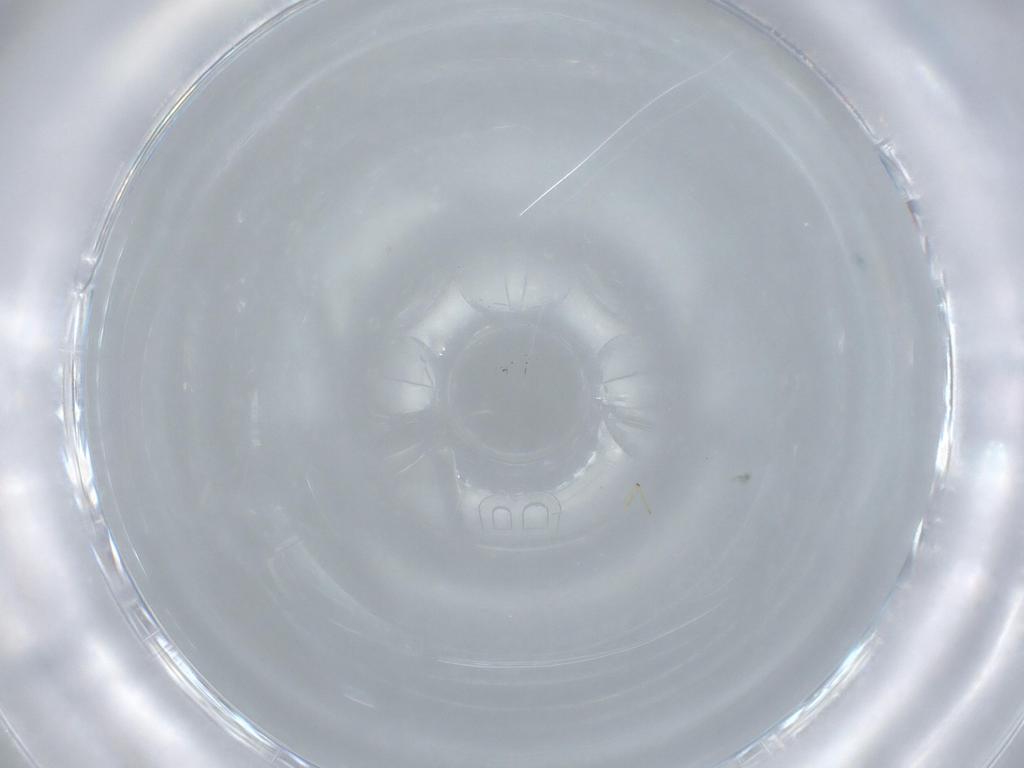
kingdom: Animalia
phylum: Arthropoda
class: Insecta
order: Diptera
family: Chironomidae
